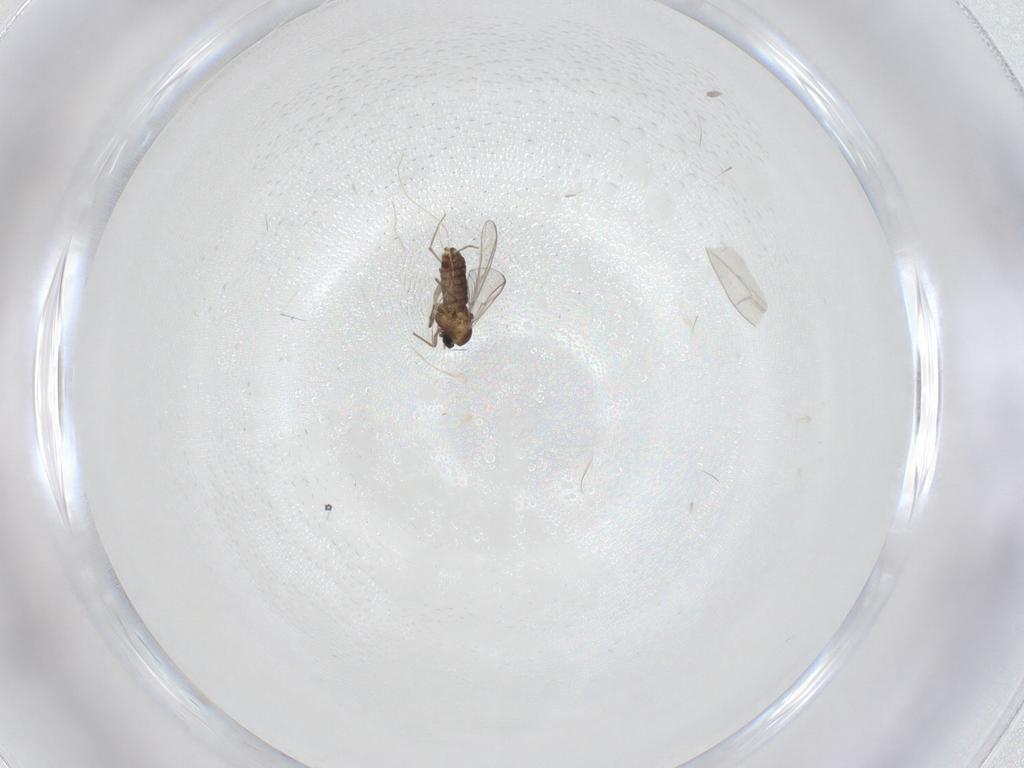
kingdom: Animalia
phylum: Arthropoda
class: Insecta
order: Diptera
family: Chironomidae
